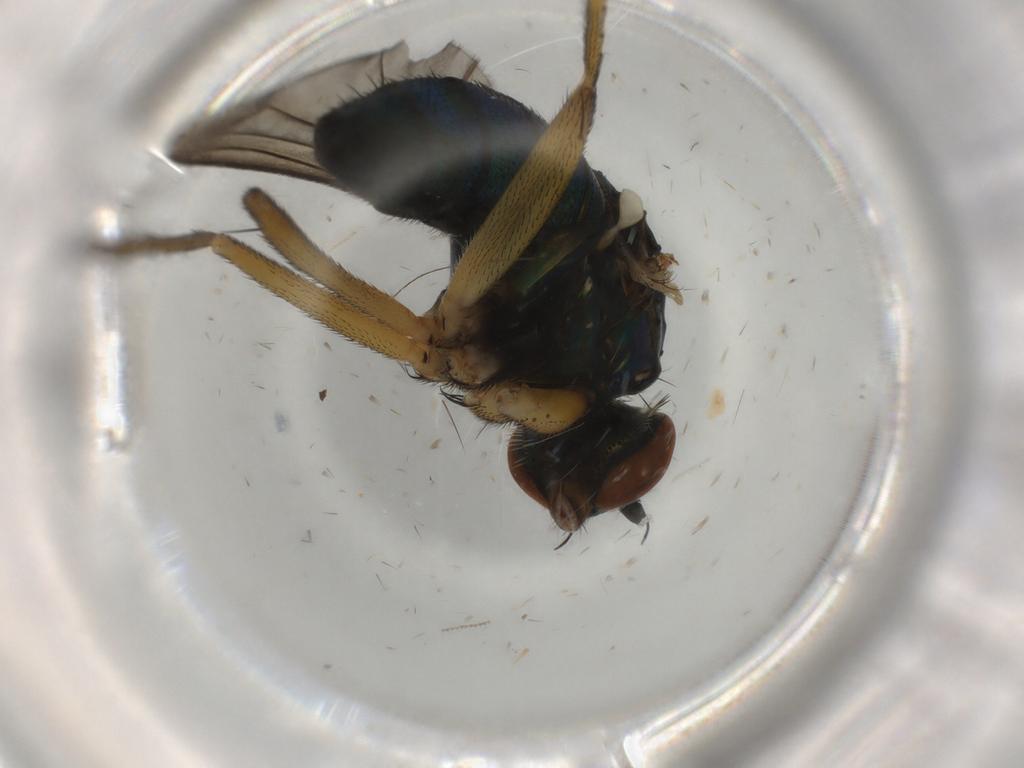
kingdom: Animalia
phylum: Arthropoda
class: Insecta
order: Diptera
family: Dolichopodidae
